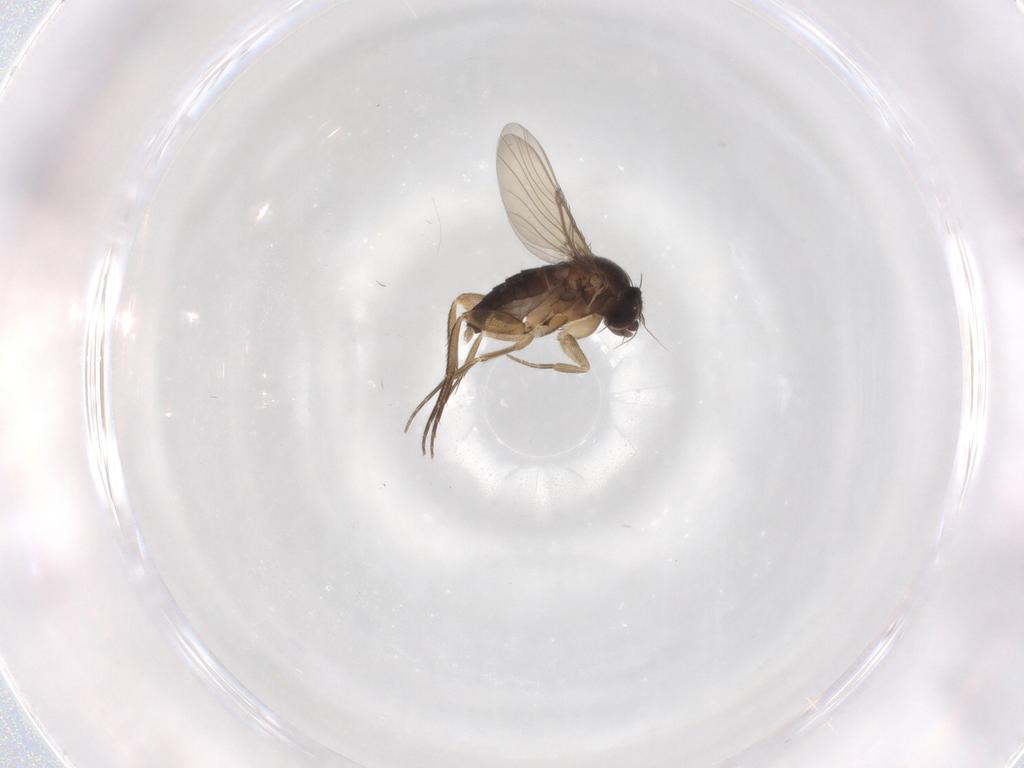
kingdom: Animalia
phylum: Arthropoda
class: Insecta
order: Diptera
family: Phoridae
